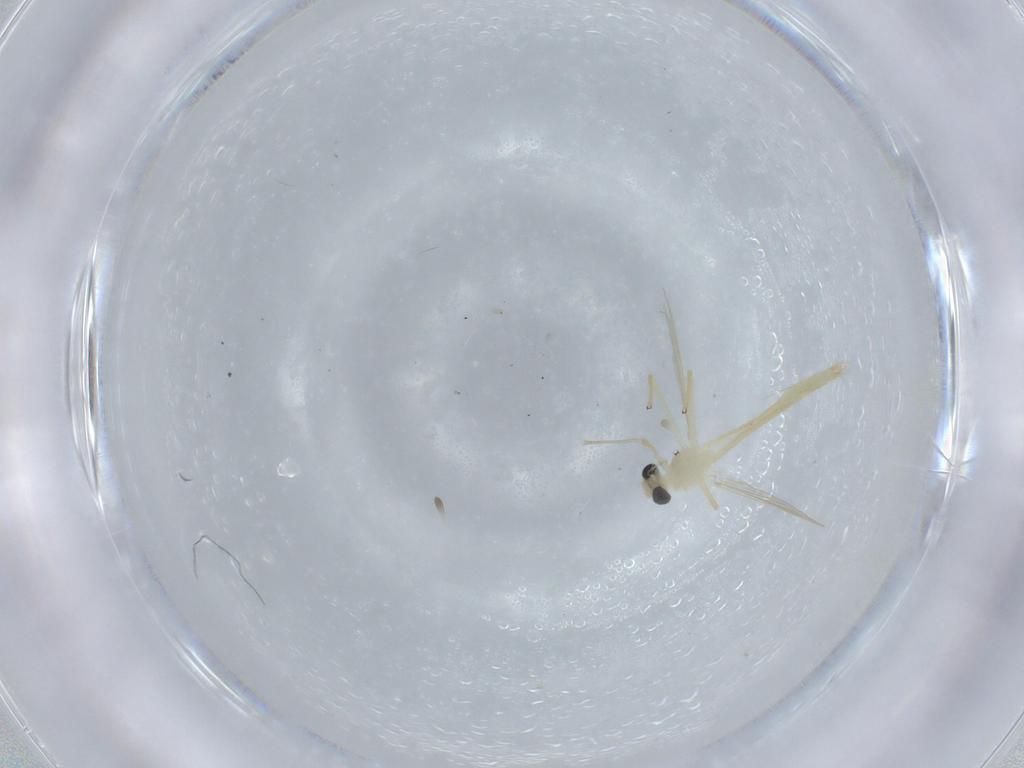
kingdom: Animalia
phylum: Arthropoda
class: Insecta
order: Diptera
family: Chironomidae
